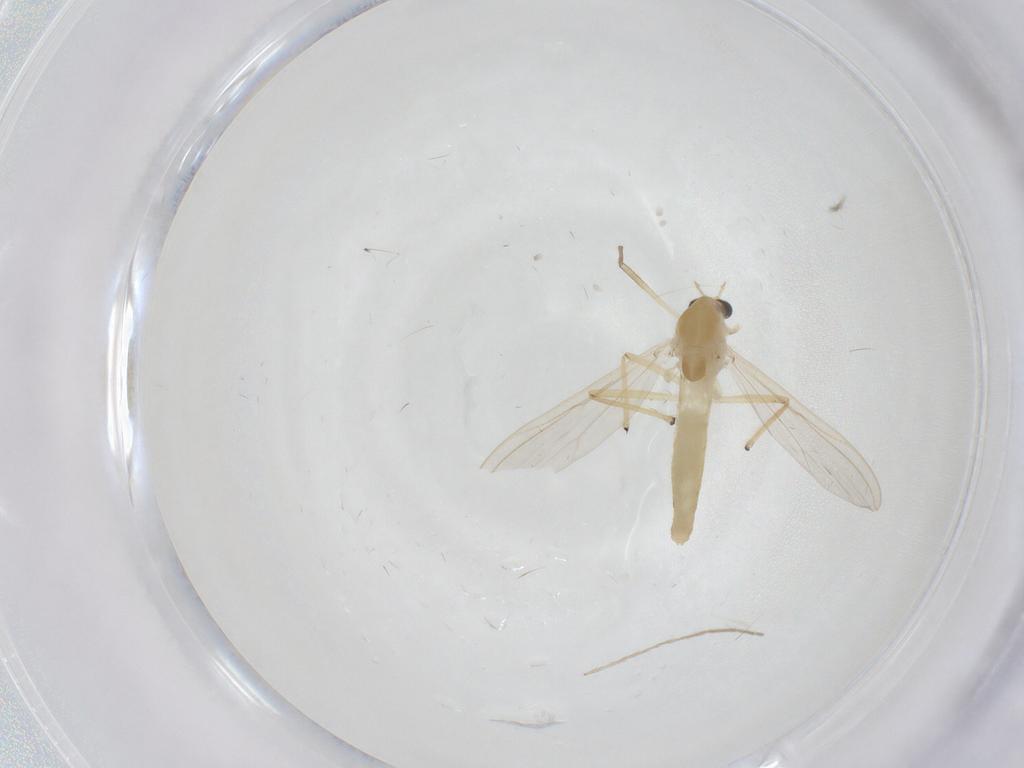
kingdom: Animalia
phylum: Arthropoda
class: Insecta
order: Diptera
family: Chironomidae
